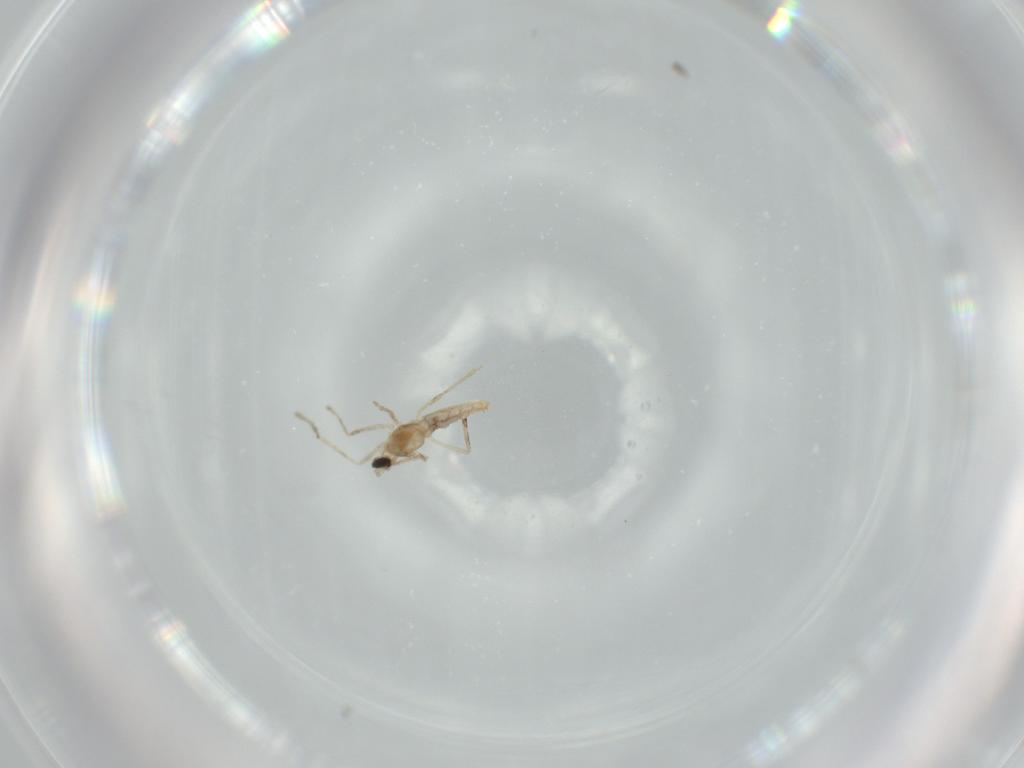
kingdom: Animalia
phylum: Arthropoda
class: Insecta
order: Diptera
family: Cecidomyiidae
